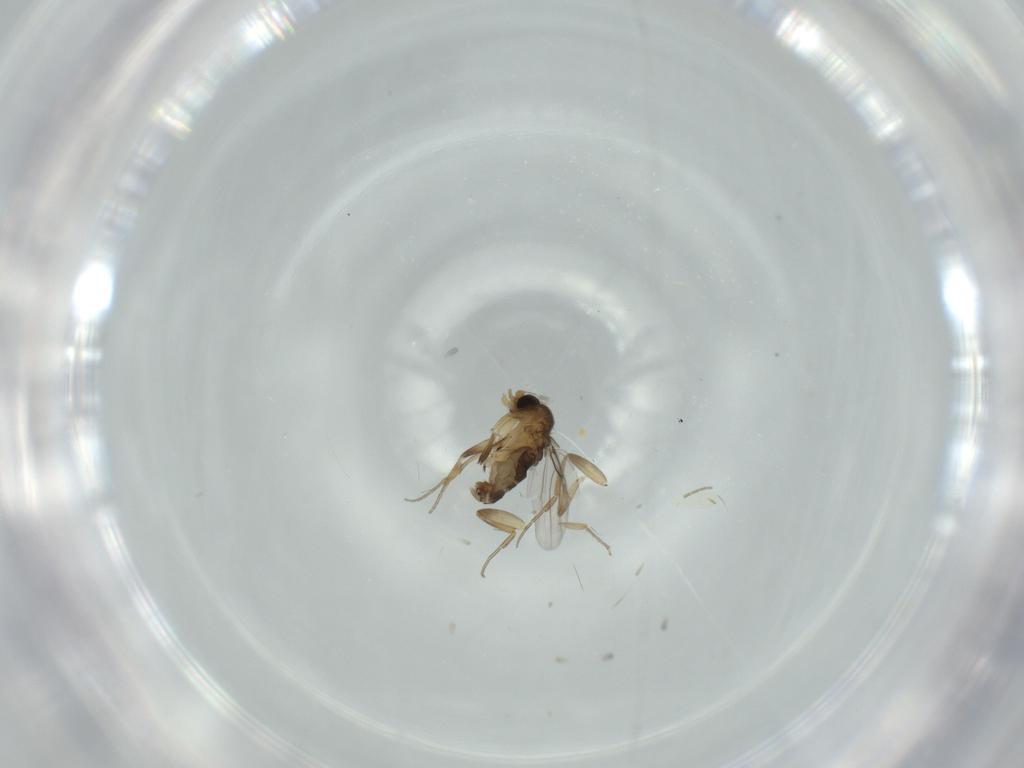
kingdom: Animalia
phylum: Arthropoda
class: Insecta
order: Diptera
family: Phoridae
